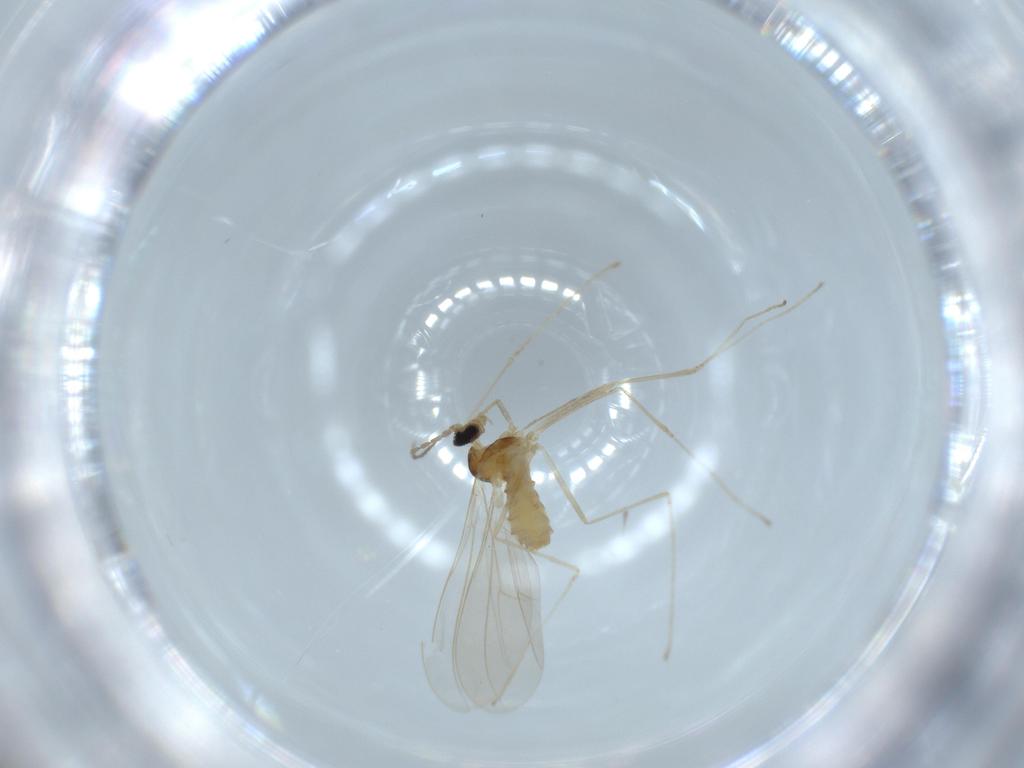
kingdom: Animalia
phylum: Arthropoda
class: Insecta
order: Diptera
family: Cecidomyiidae
